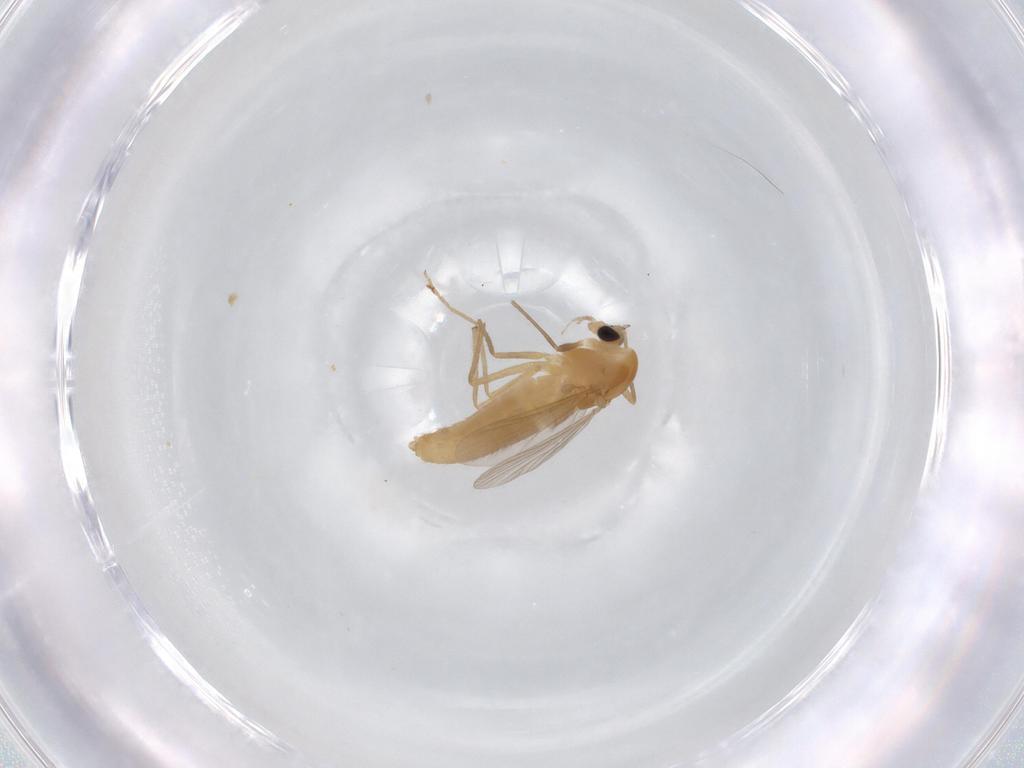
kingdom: Animalia
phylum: Arthropoda
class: Insecta
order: Diptera
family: Chironomidae
